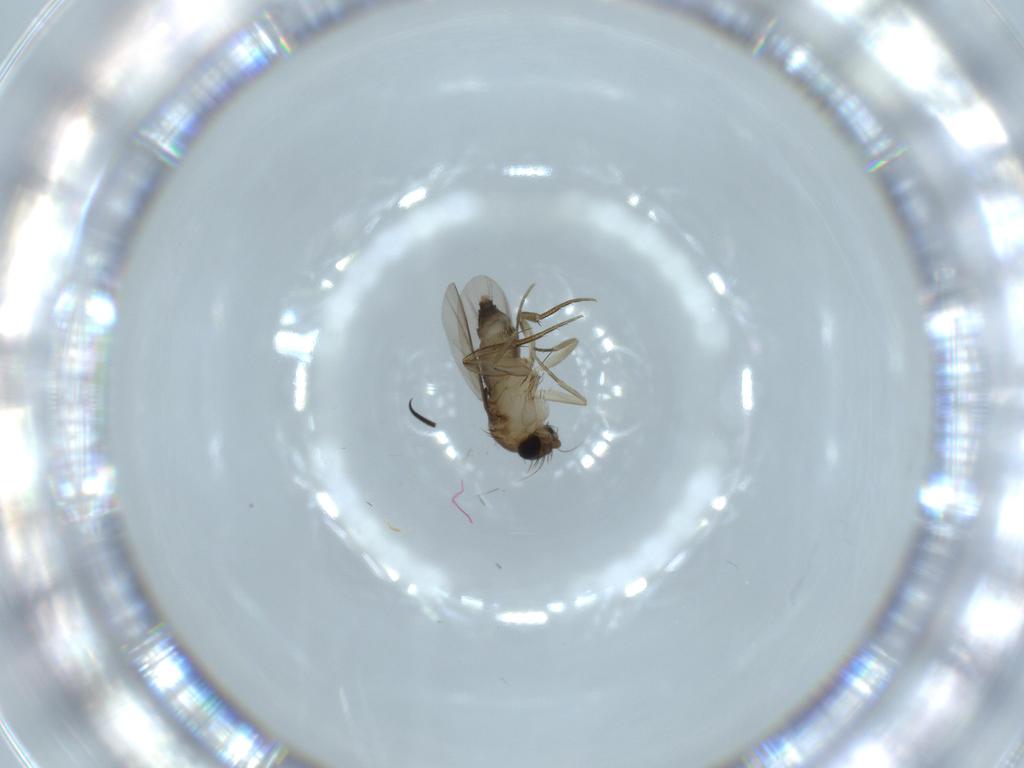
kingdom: Animalia
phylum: Arthropoda
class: Insecta
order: Diptera
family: Phoridae
